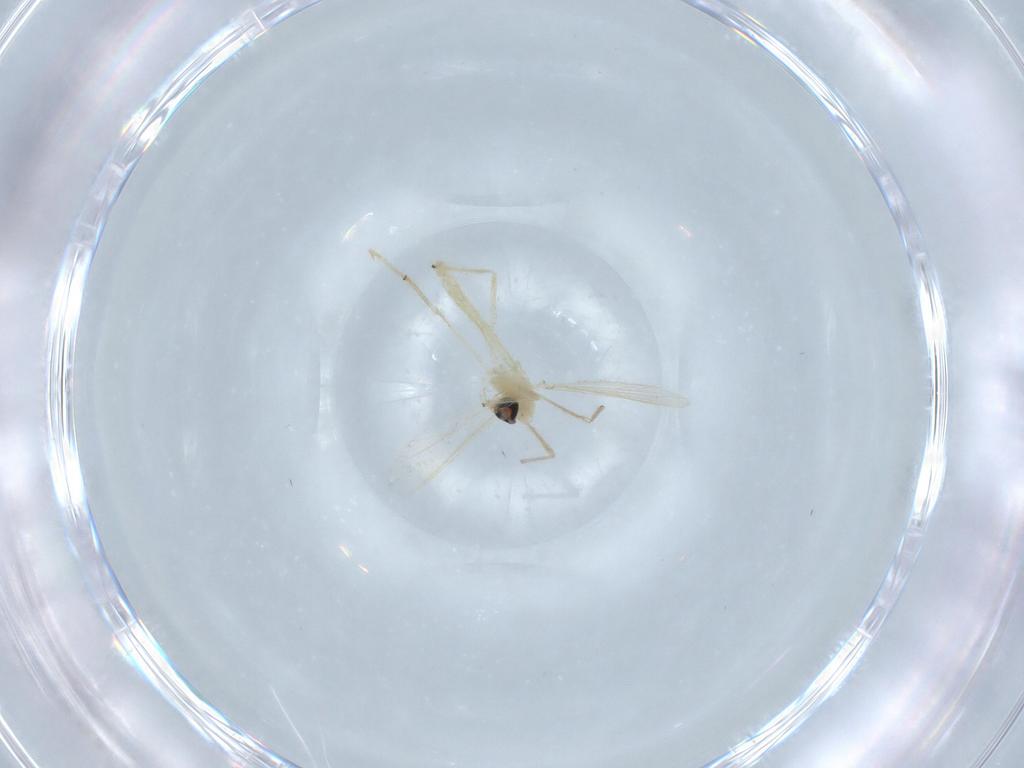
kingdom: Animalia
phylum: Arthropoda
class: Insecta
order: Diptera
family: Chironomidae
